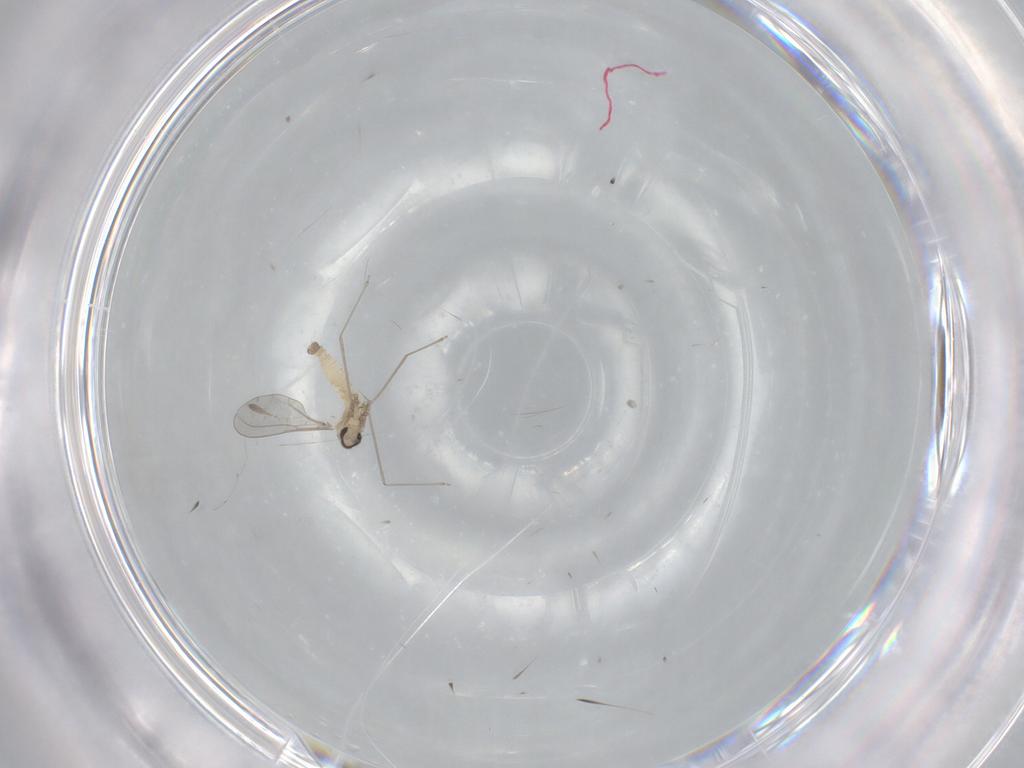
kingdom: Animalia
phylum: Arthropoda
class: Insecta
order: Diptera
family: Cecidomyiidae
